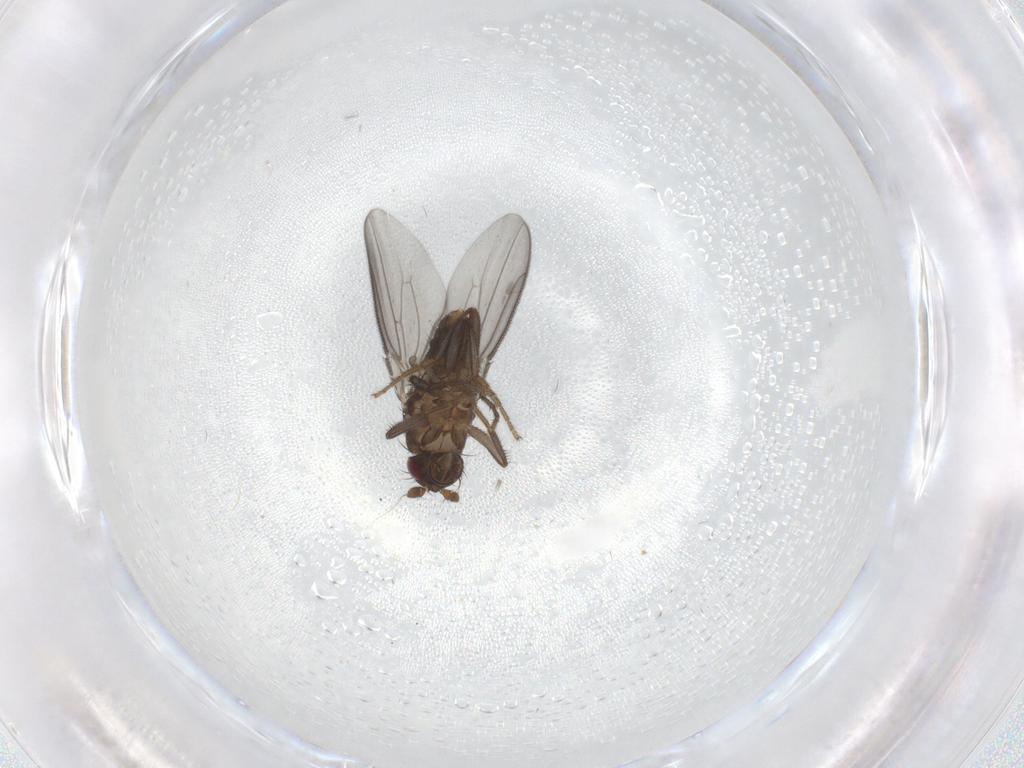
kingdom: Animalia
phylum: Arthropoda
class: Insecta
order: Diptera
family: Sphaeroceridae
